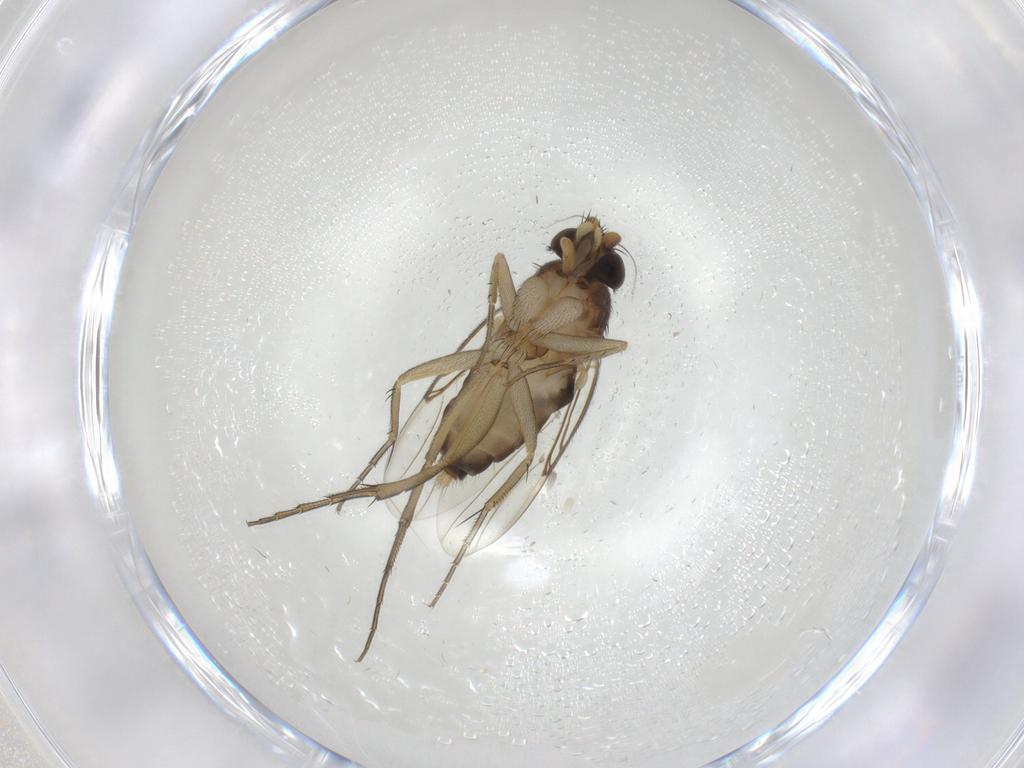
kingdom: Animalia
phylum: Arthropoda
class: Insecta
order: Diptera
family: Phoridae
